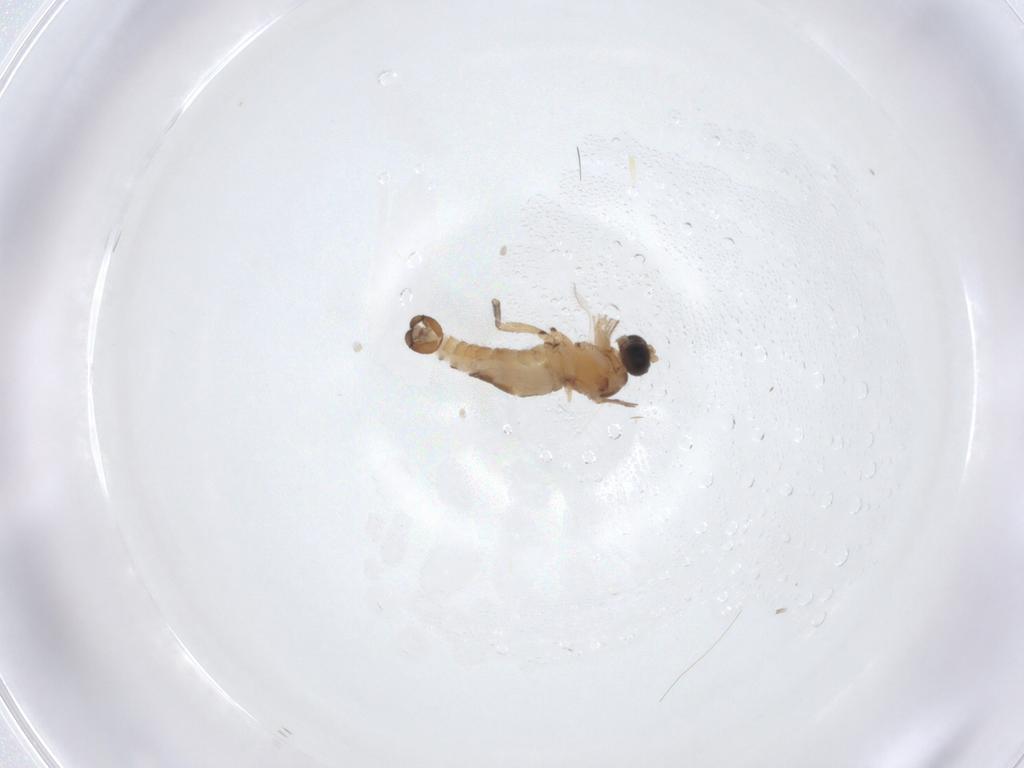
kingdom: Animalia
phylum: Arthropoda
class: Insecta
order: Diptera
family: Sciaridae
